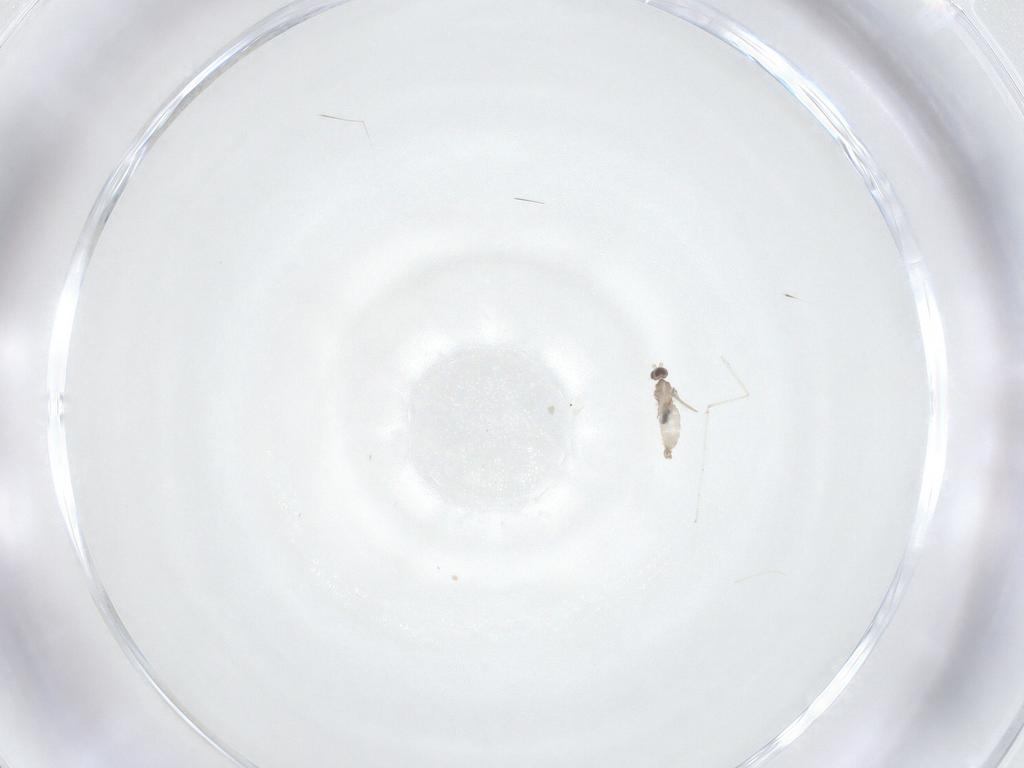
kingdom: Animalia
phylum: Arthropoda
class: Insecta
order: Diptera
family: Cecidomyiidae
